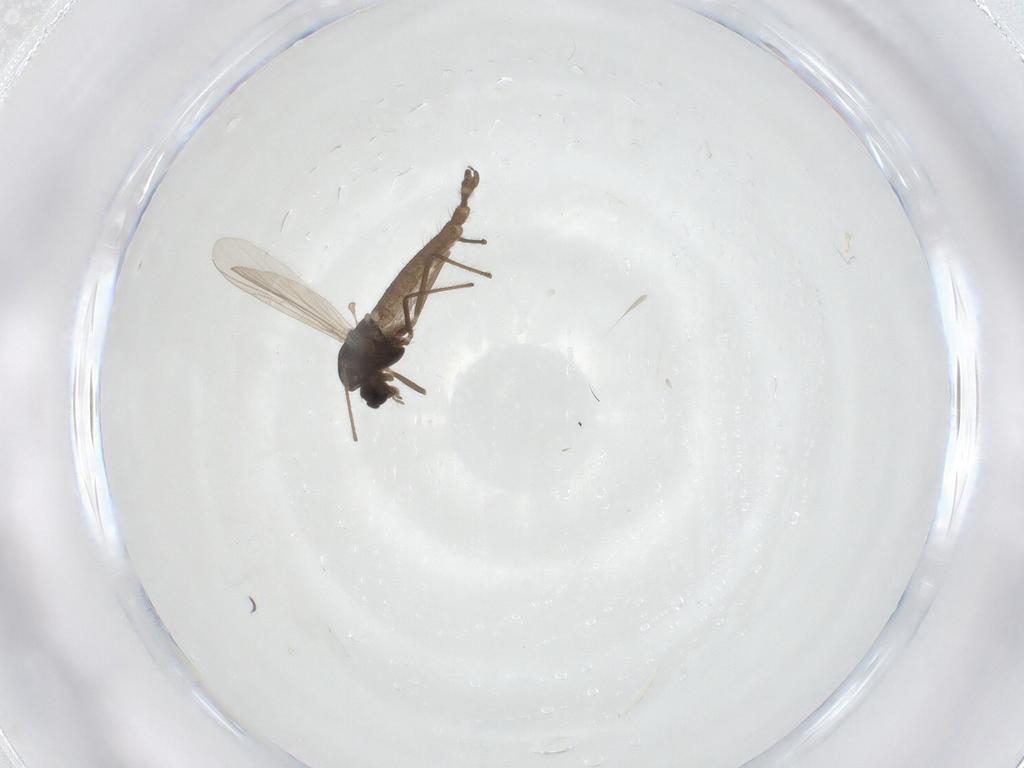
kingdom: Animalia
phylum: Arthropoda
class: Insecta
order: Diptera
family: Chironomidae
